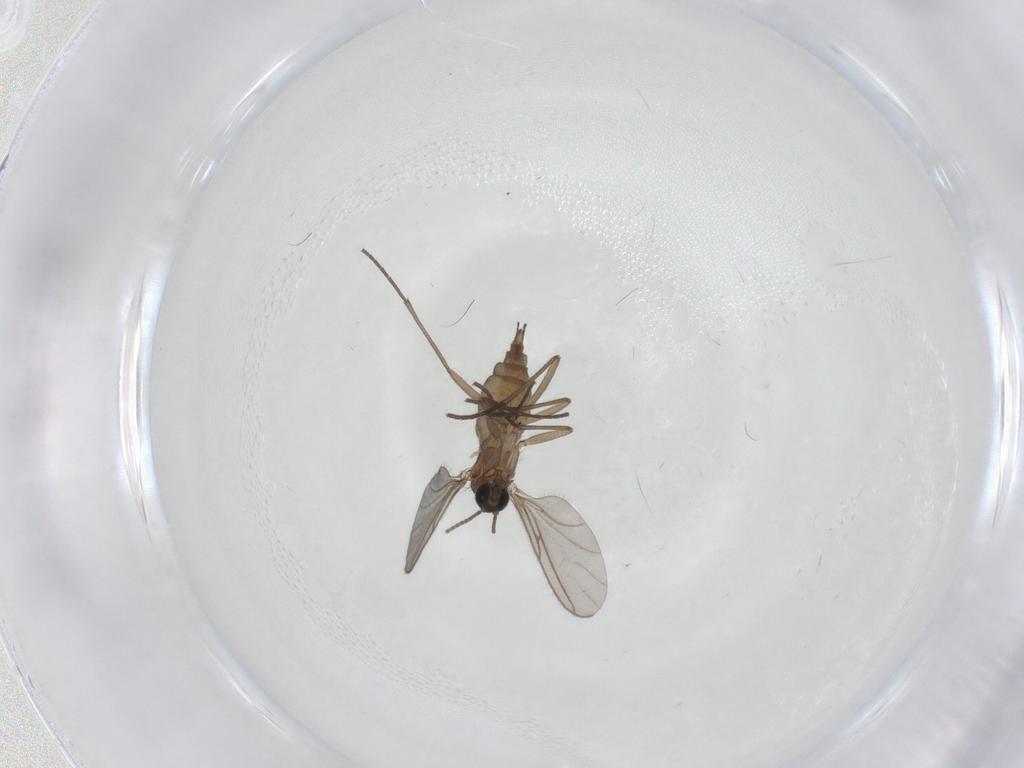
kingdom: Animalia
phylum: Arthropoda
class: Insecta
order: Diptera
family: Sciaridae
